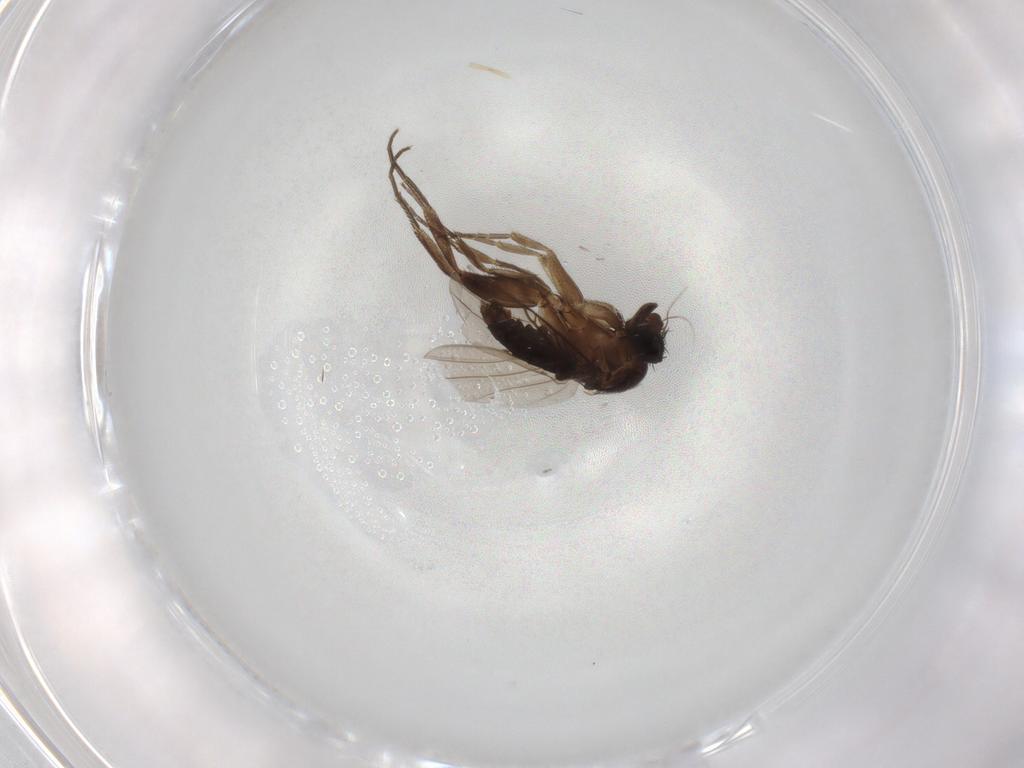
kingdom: Animalia
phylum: Arthropoda
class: Insecta
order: Diptera
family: Phoridae
